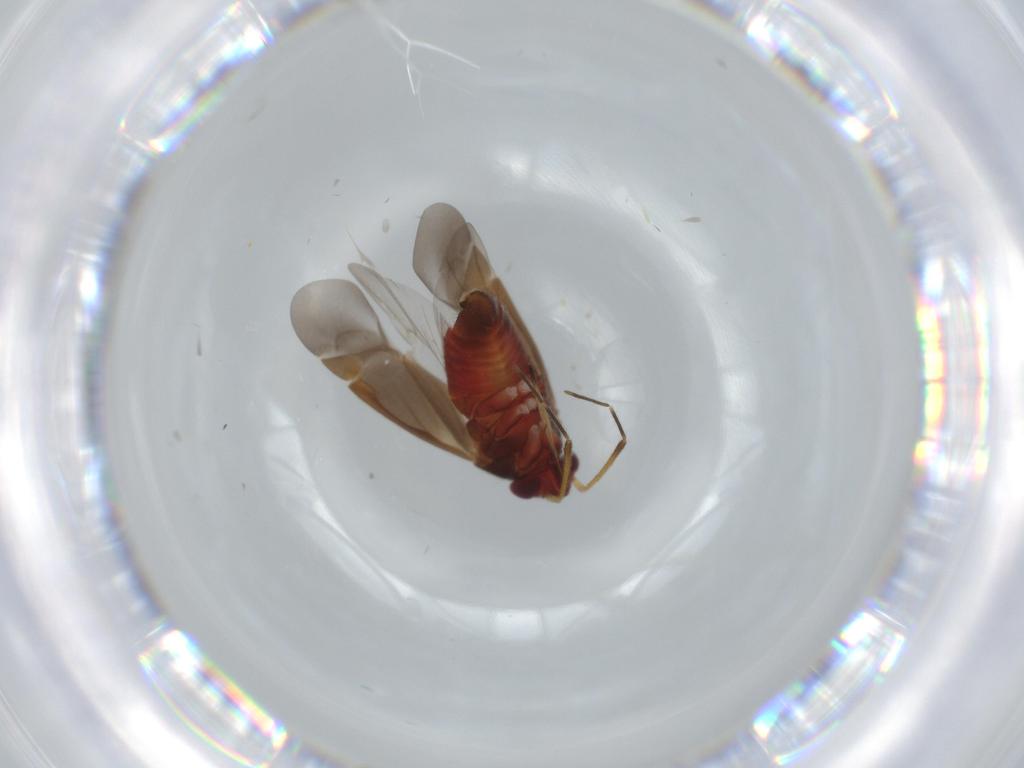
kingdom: Animalia
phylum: Arthropoda
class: Insecta
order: Hemiptera
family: Miridae
